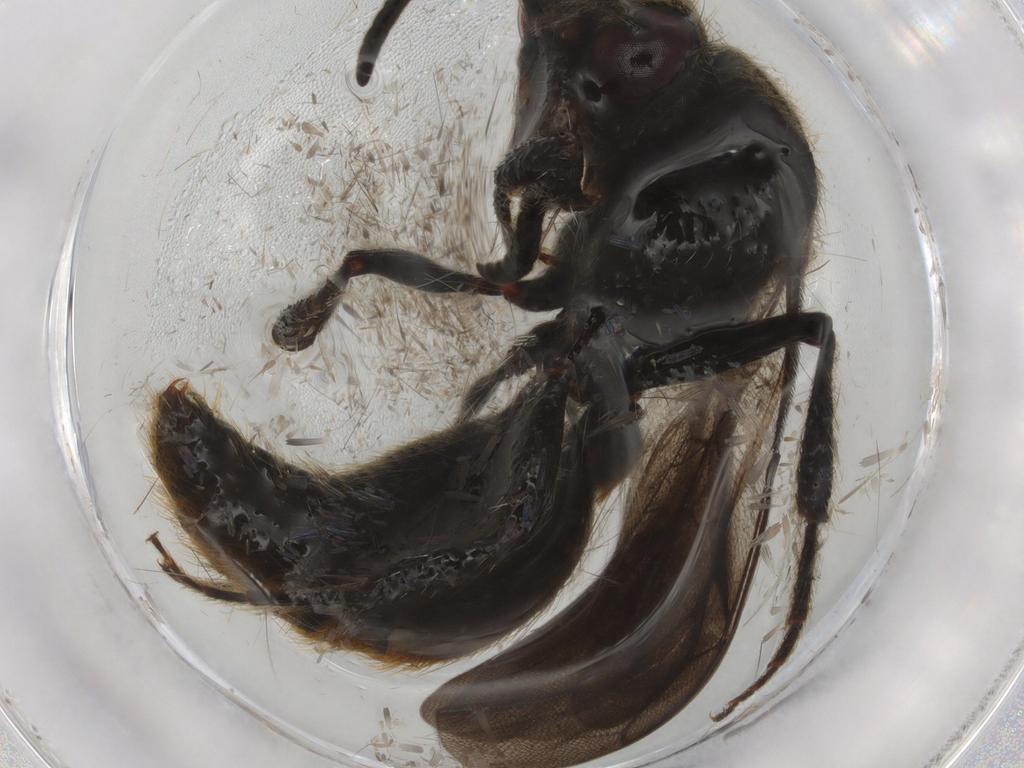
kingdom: Animalia
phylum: Arthropoda
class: Insecta
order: Hymenoptera
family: Mutillidae
